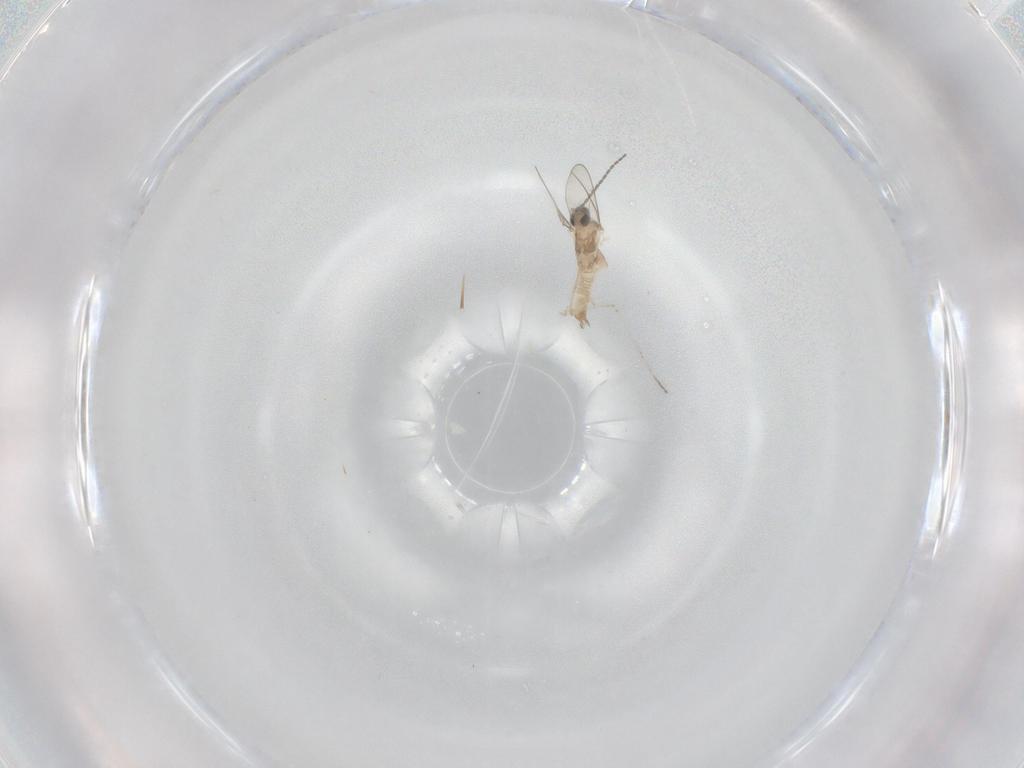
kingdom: Animalia
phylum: Arthropoda
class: Insecta
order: Diptera
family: Cecidomyiidae
